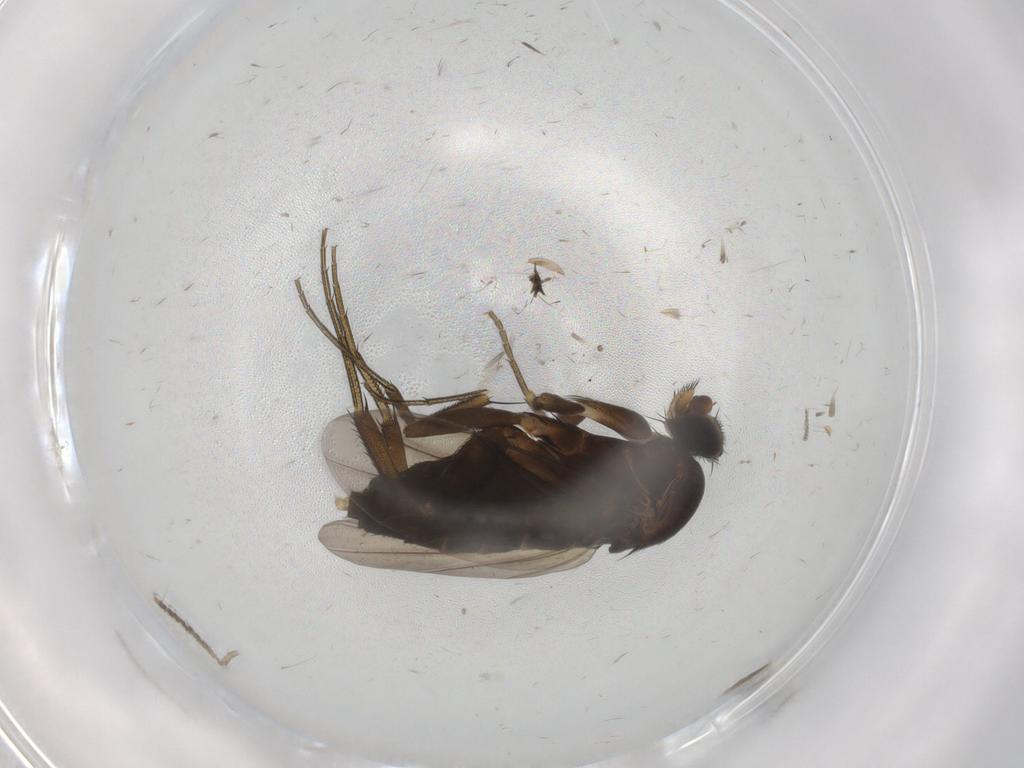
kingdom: Animalia
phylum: Arthropoda
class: Insecta
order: Diptera
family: Phoridae
